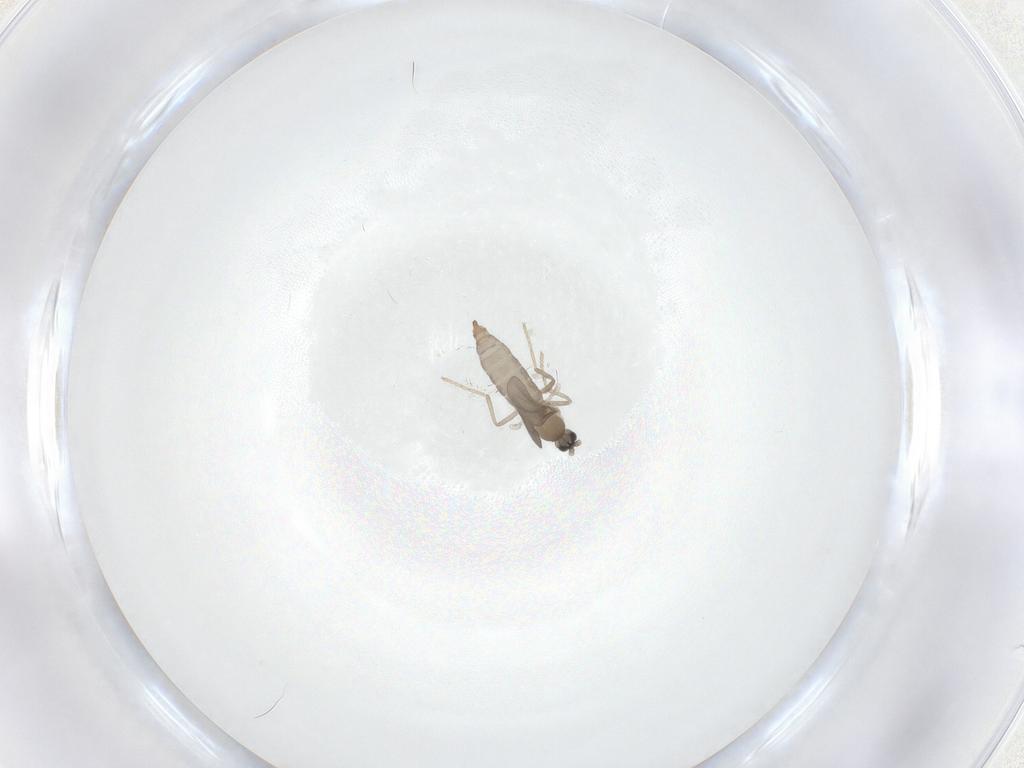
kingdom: Animalia
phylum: Arthropoda
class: Insecta
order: Diptera
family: Cecidomyiidae
